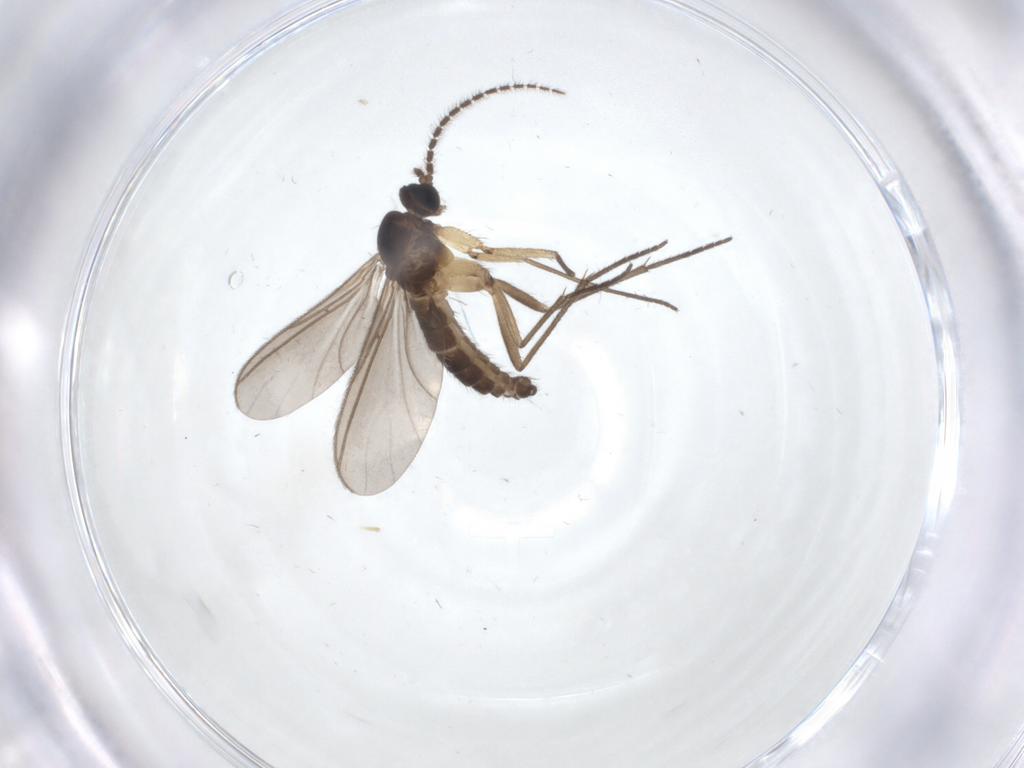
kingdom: Animalia
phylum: Arthropoda
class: Insecta
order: Diptera
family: Sciaridae
